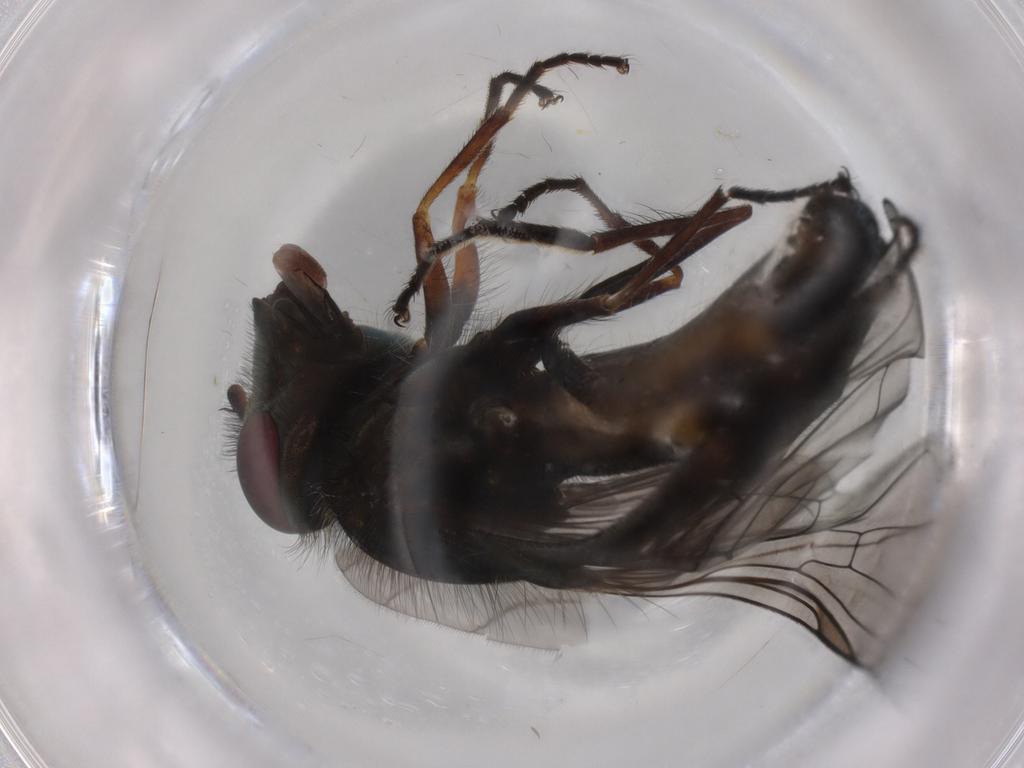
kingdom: Animalia
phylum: Arthropoda
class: Insecta
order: Diptera
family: Syrphidae
